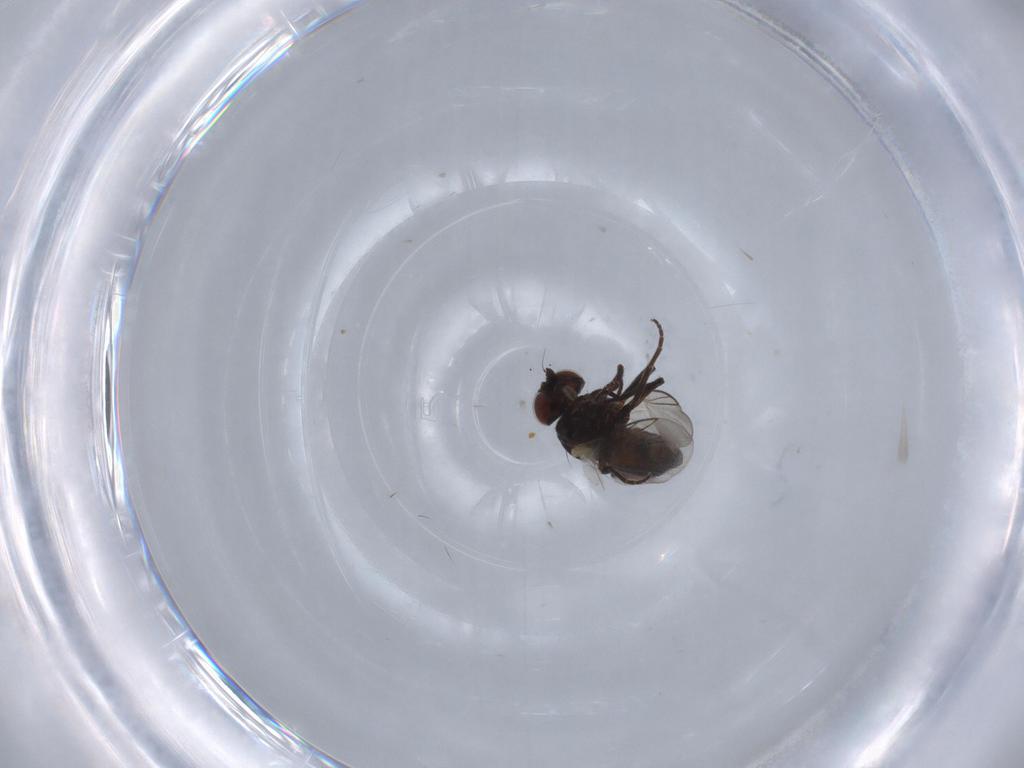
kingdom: Animalia
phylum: Arthropoda
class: Insecta
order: Diptera
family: Agromyzidae
